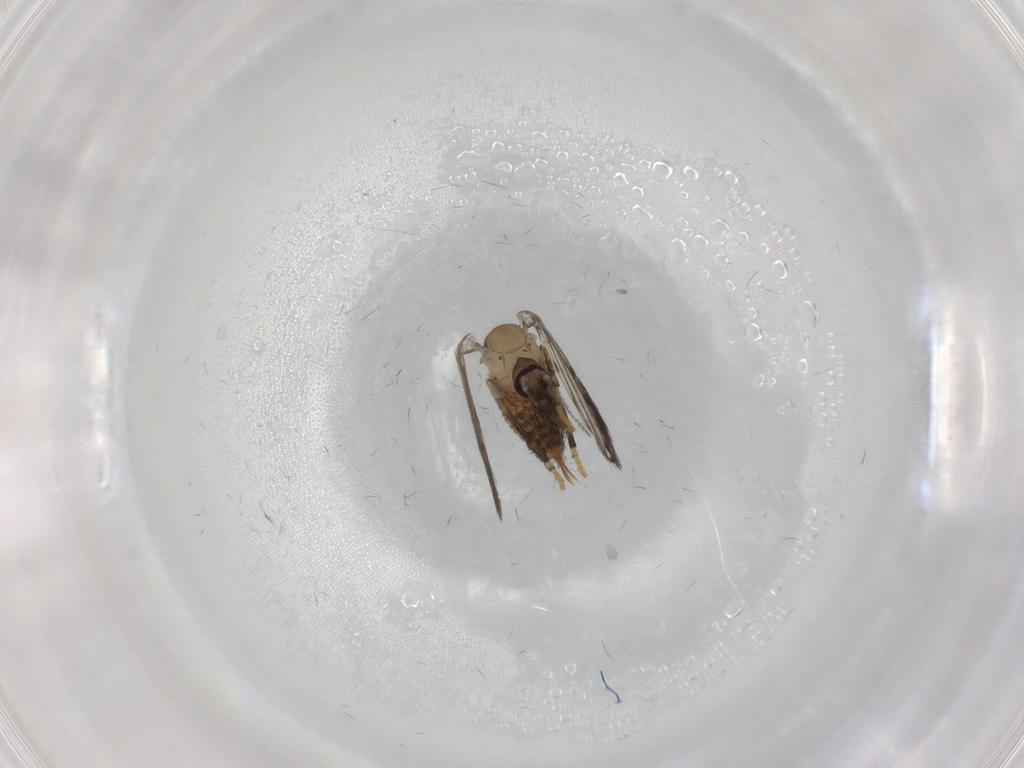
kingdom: Animalia
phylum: Arthropoda
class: Insecta
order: Diptera
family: Psychodidae
